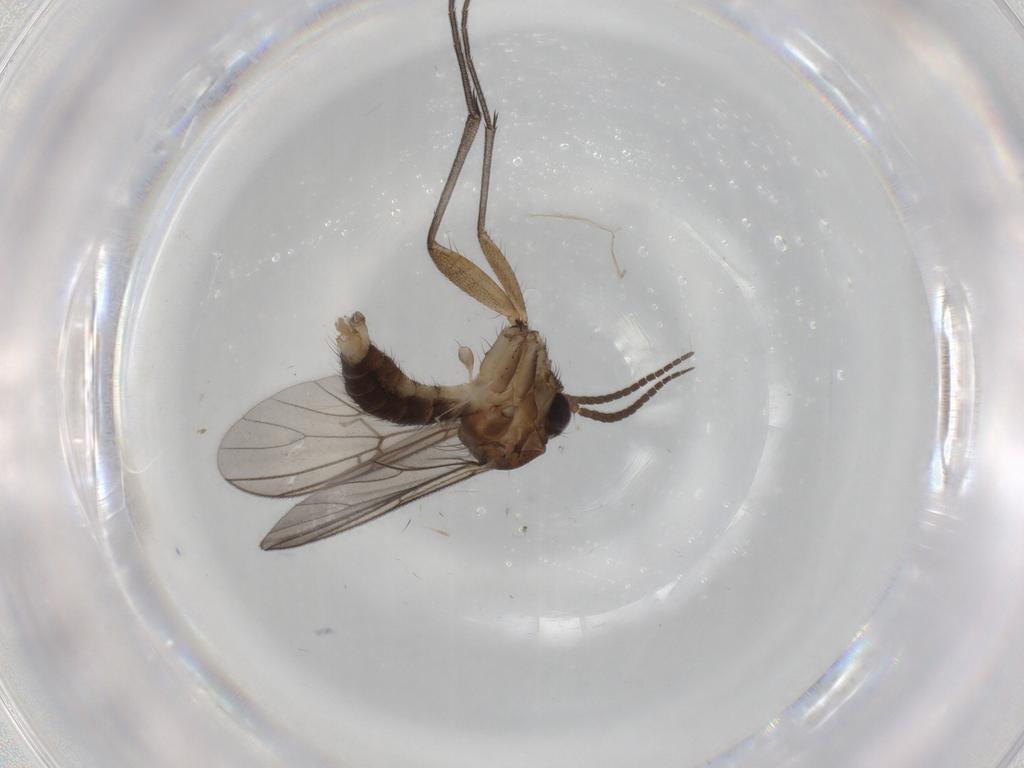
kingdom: Animalia
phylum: Arthropoda
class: Insecta
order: Diptera
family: Mycetophilidae
